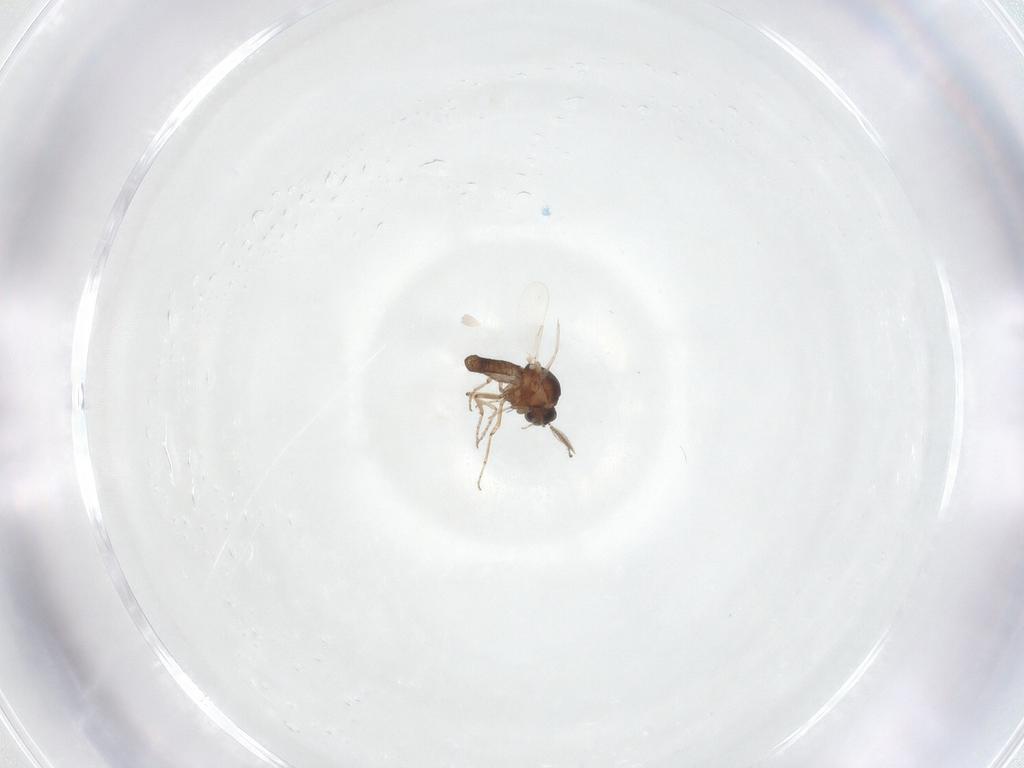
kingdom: Animalia
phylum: Arthropoda
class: Insecta
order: Diptera
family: Ceratopogonidae
